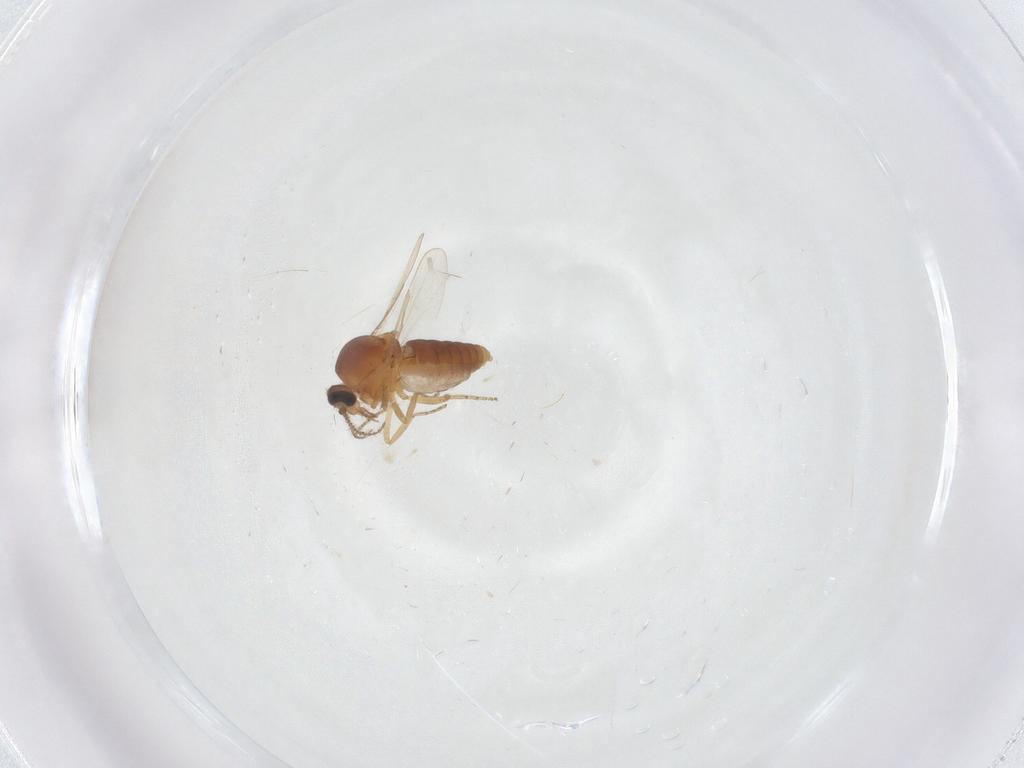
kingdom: Animalia
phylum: Arthropoda
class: Insecta
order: Diptera
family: Ceratopogonidae
